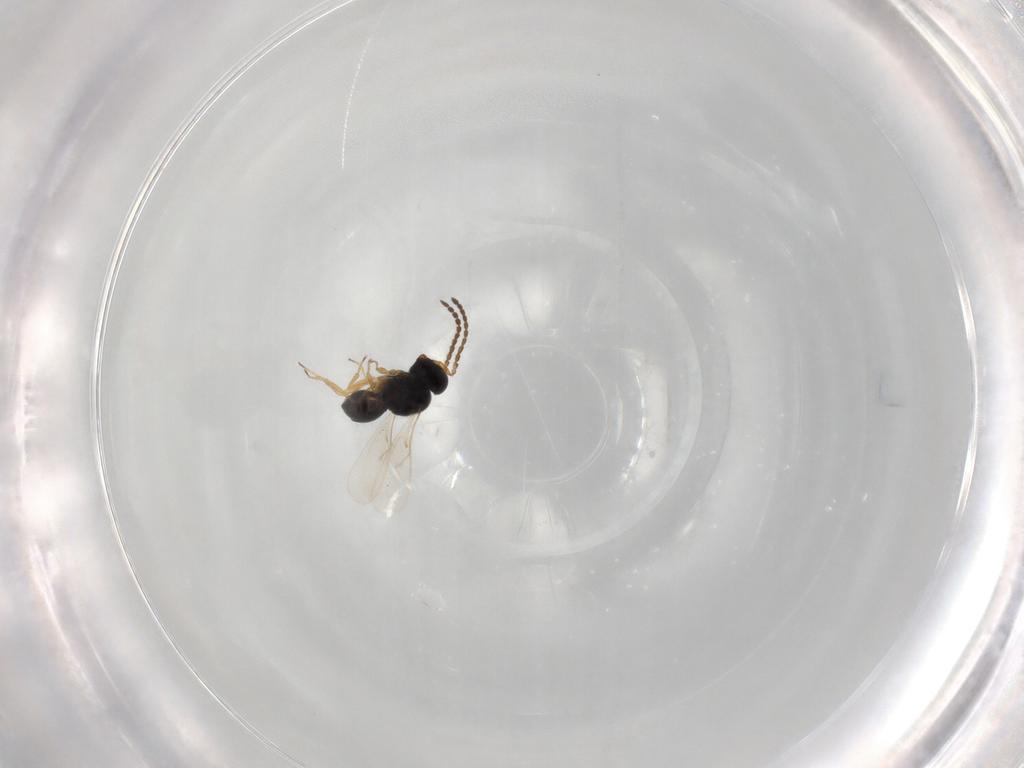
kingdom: Animalia
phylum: Arthropoda
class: Insecta
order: Hymenoptera
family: Scelionidae
